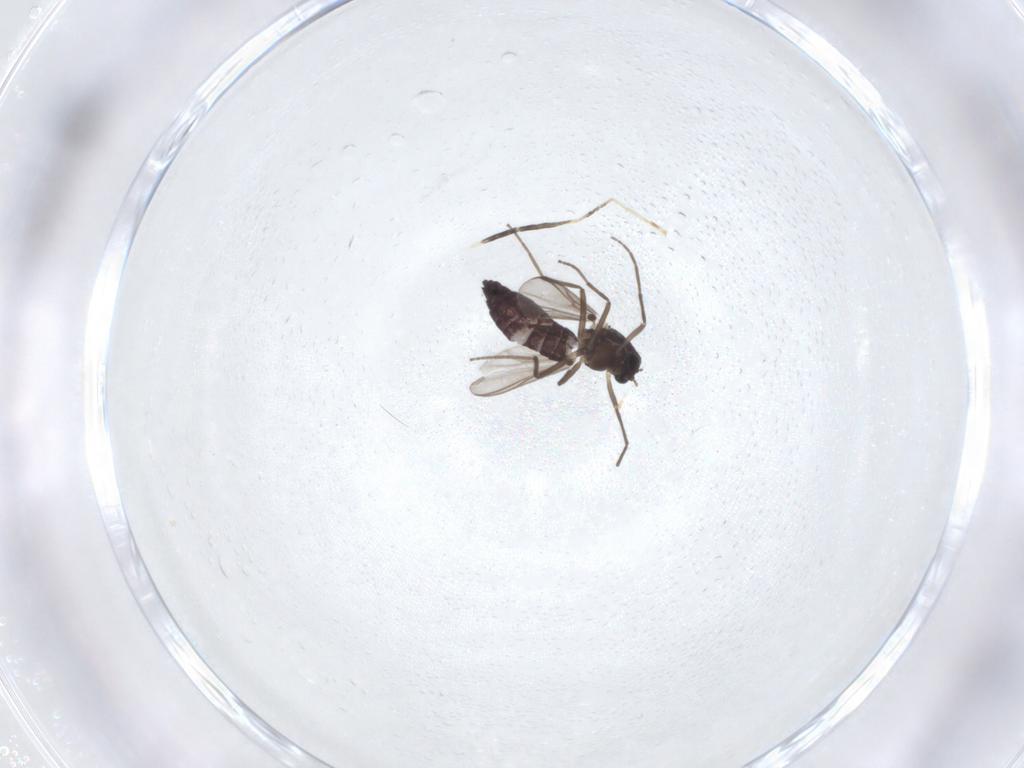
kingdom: Animalia
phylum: Arthropoda
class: Insecta
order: Diptera
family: Chironomidae
